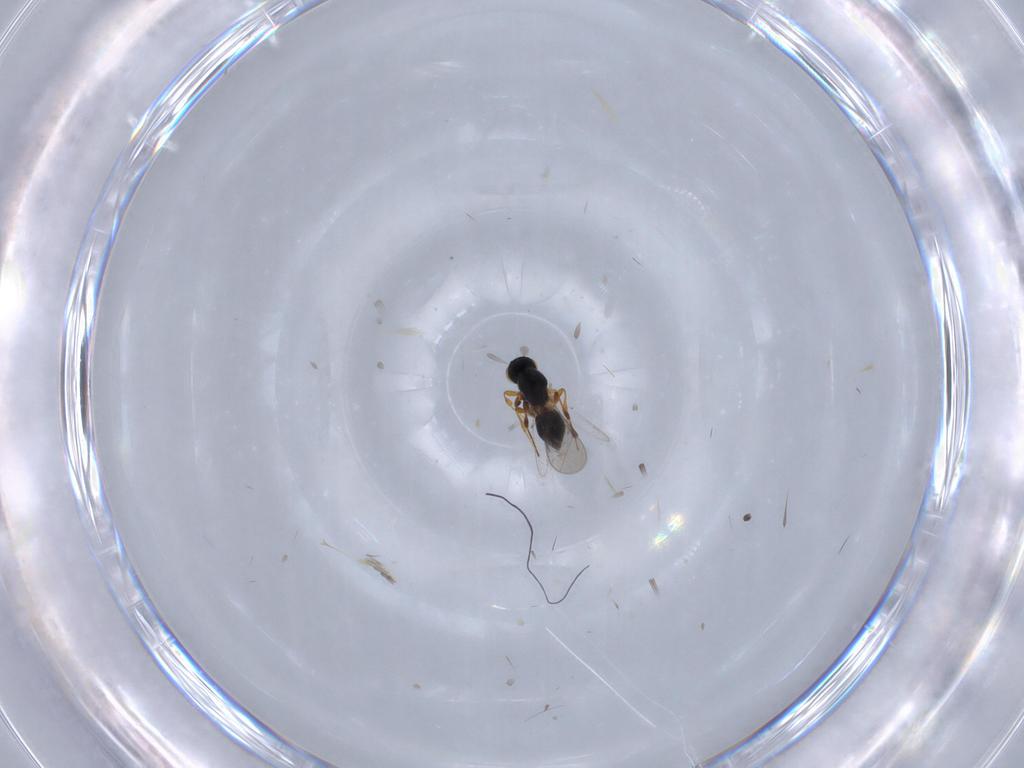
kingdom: Animalia
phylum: Arthropoda
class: Insecta
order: Hymenoptera
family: Platygastridae
